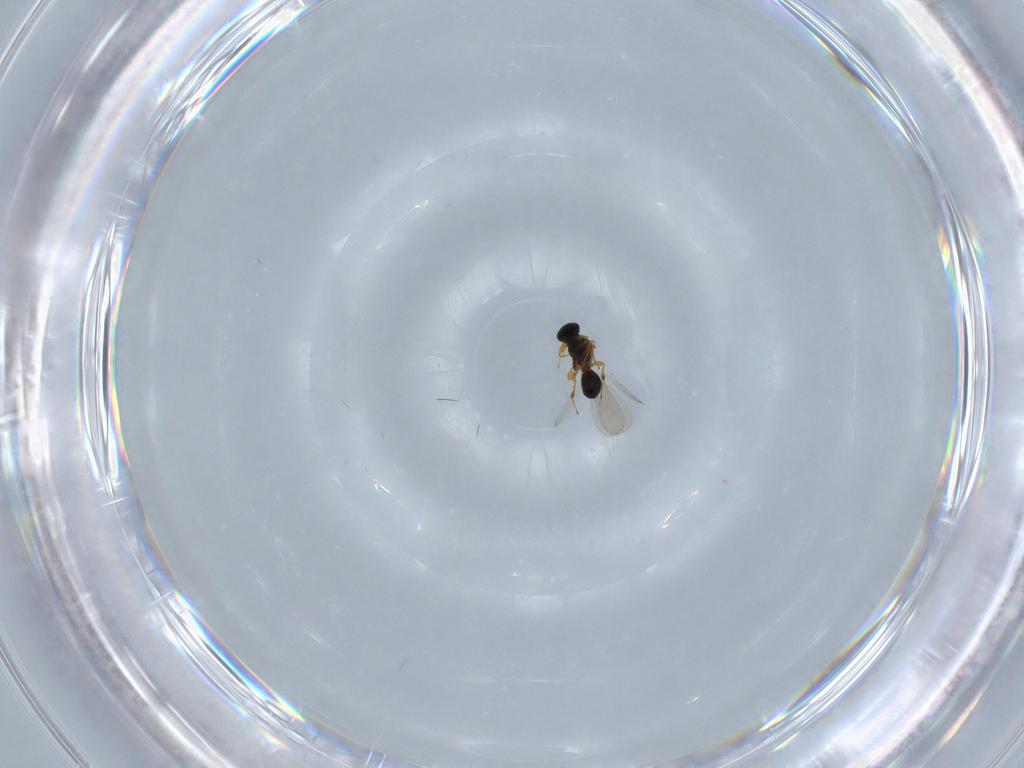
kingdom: Animalia
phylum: Arthropoda
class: Insecta
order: Hymenoptera
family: Platygastridae
